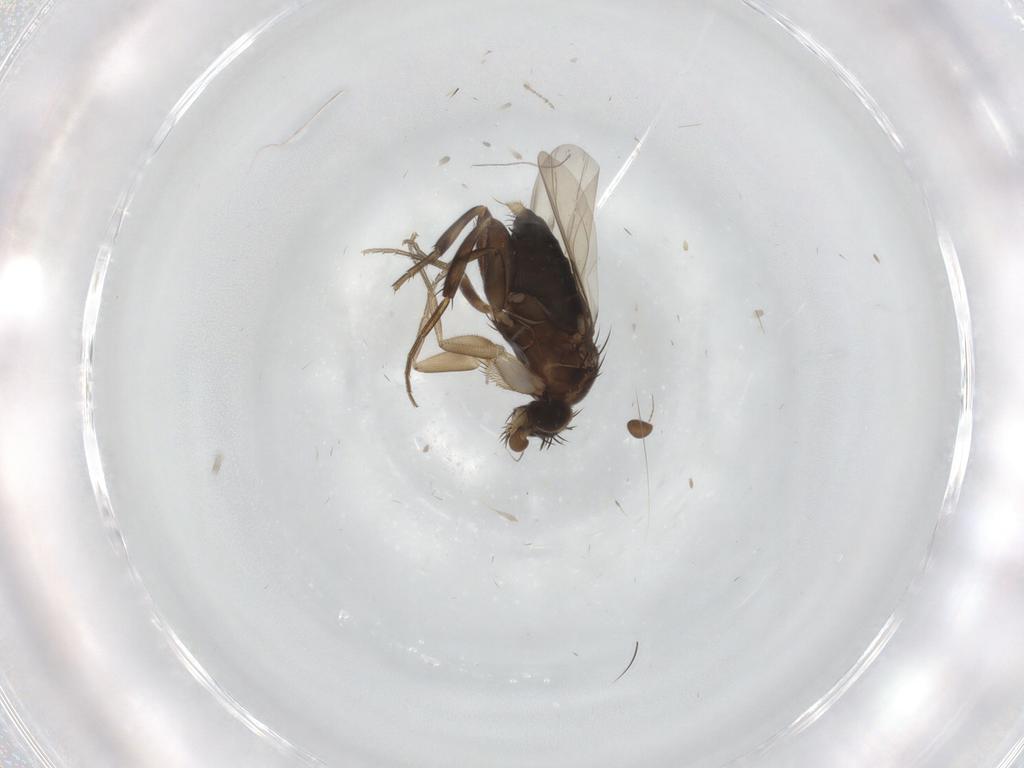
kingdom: Animalia
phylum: Arthropoda
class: Insecta
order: Diptera
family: Phoridae
